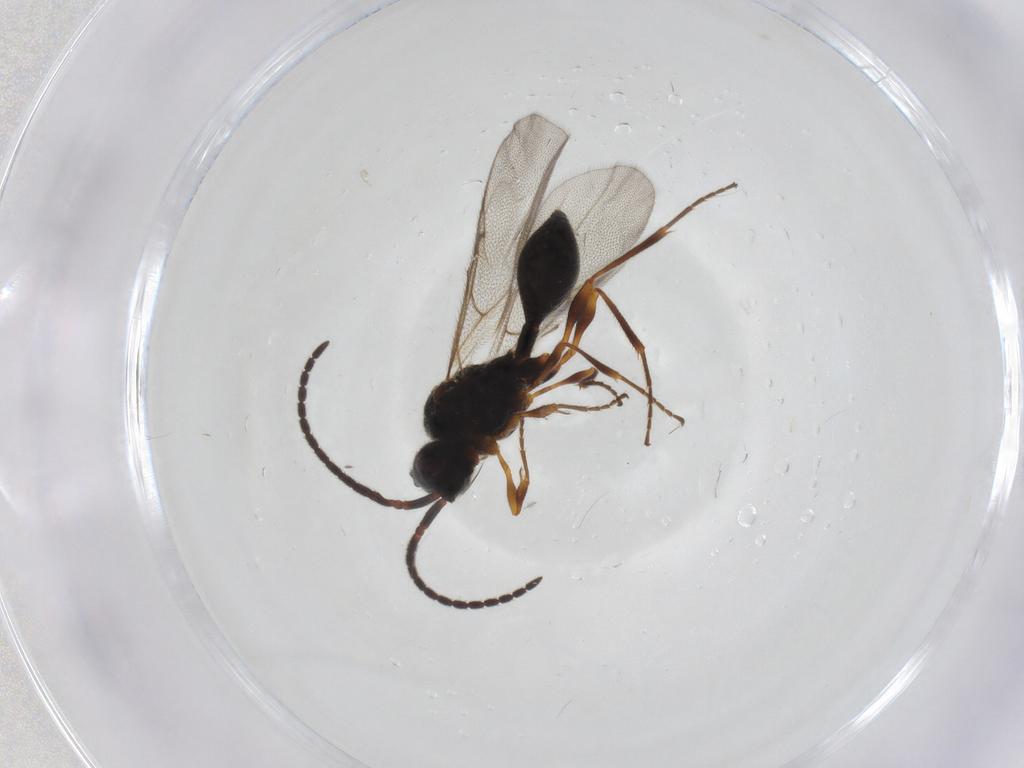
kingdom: Animalia
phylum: Arthropoda
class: Insecta
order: Hymenoptera
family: Diapriidae
